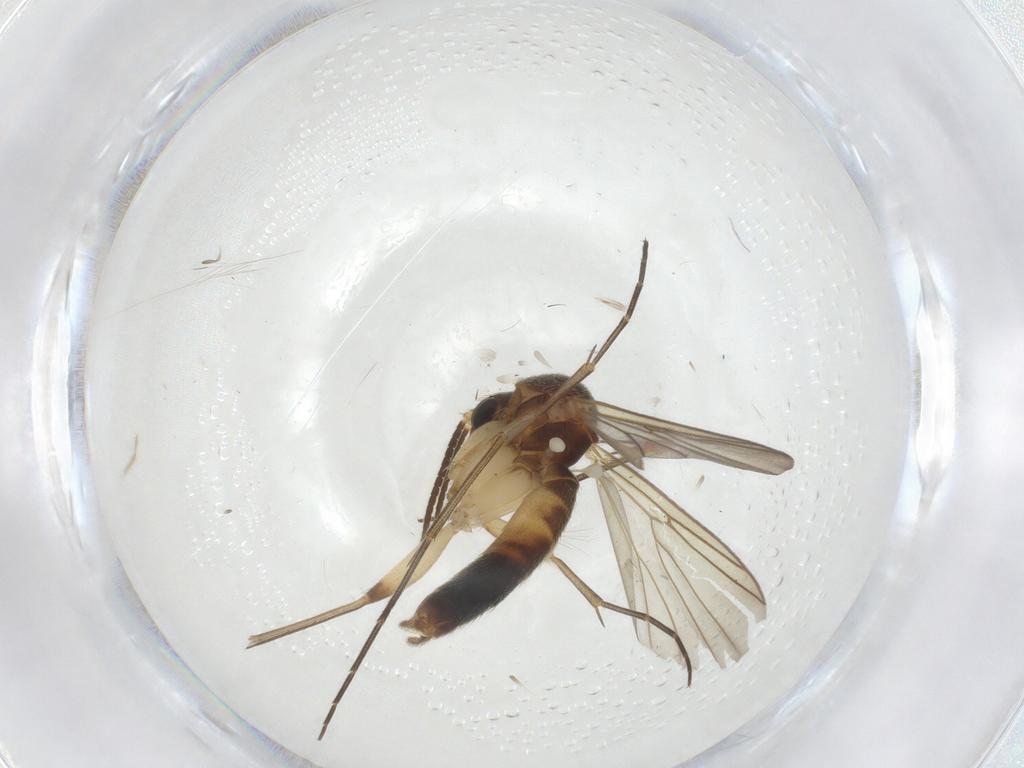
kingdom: Animalia
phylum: Arthropoda
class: Insecta
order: Diptera
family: Mycetophilidae
